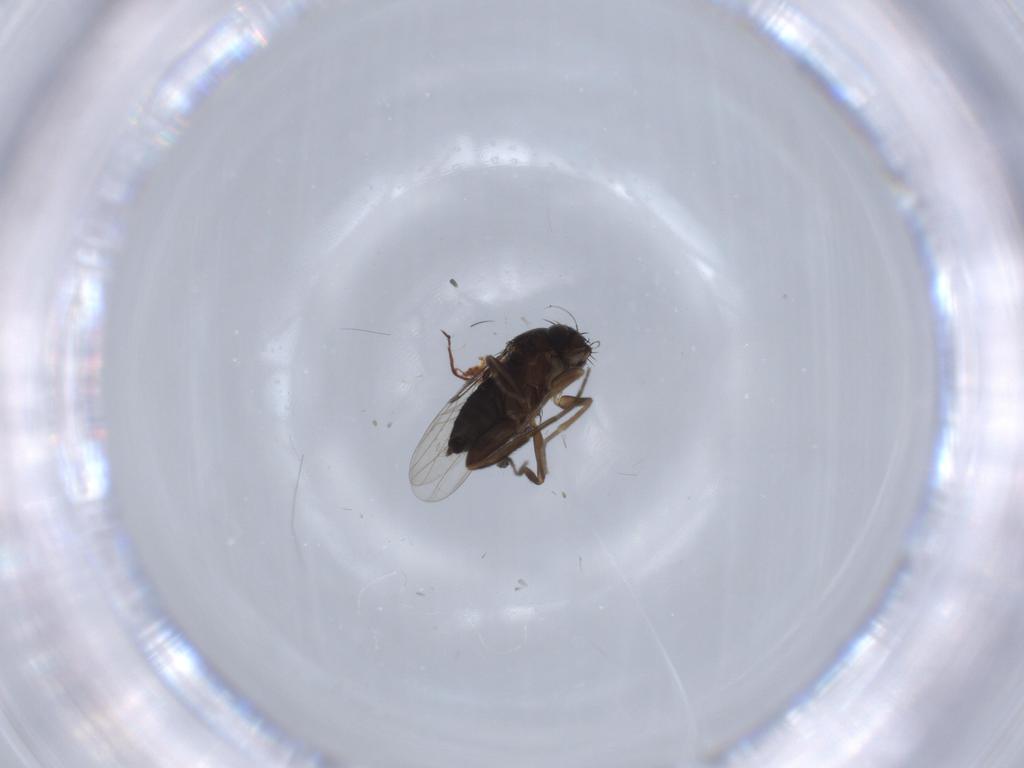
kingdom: Animalia
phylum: Arthropoda
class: Insecta
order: Diptera
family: Phoridae
